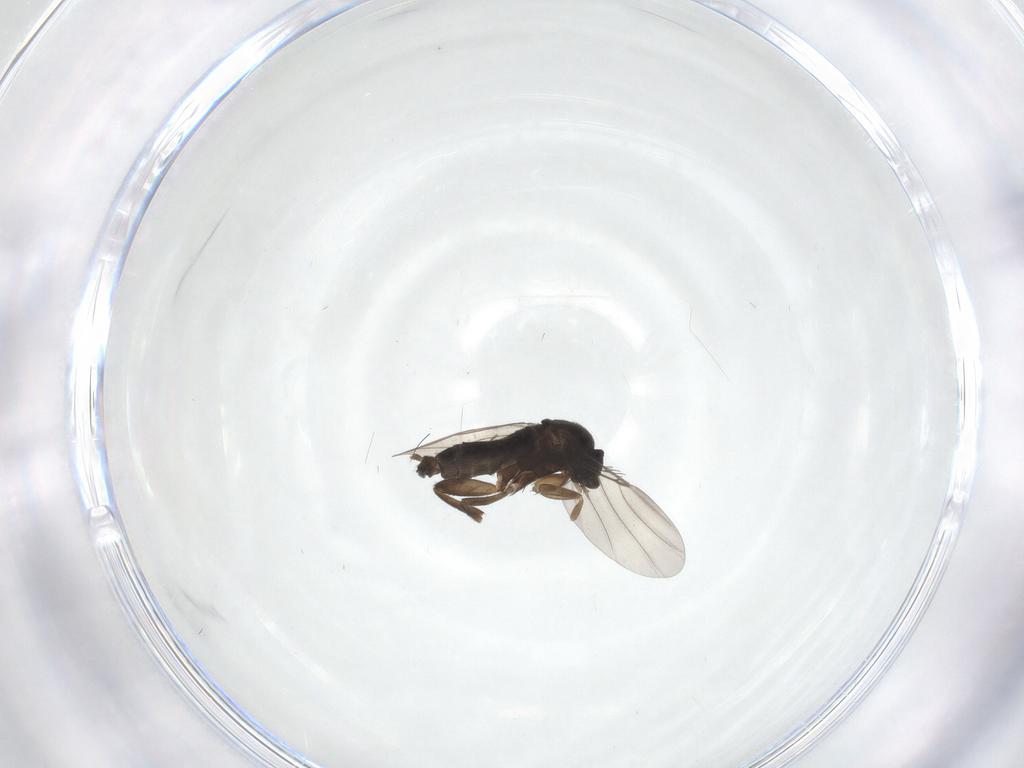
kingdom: Animalia
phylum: Arthropoda
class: Insecta
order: Diptera
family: Phoridae
